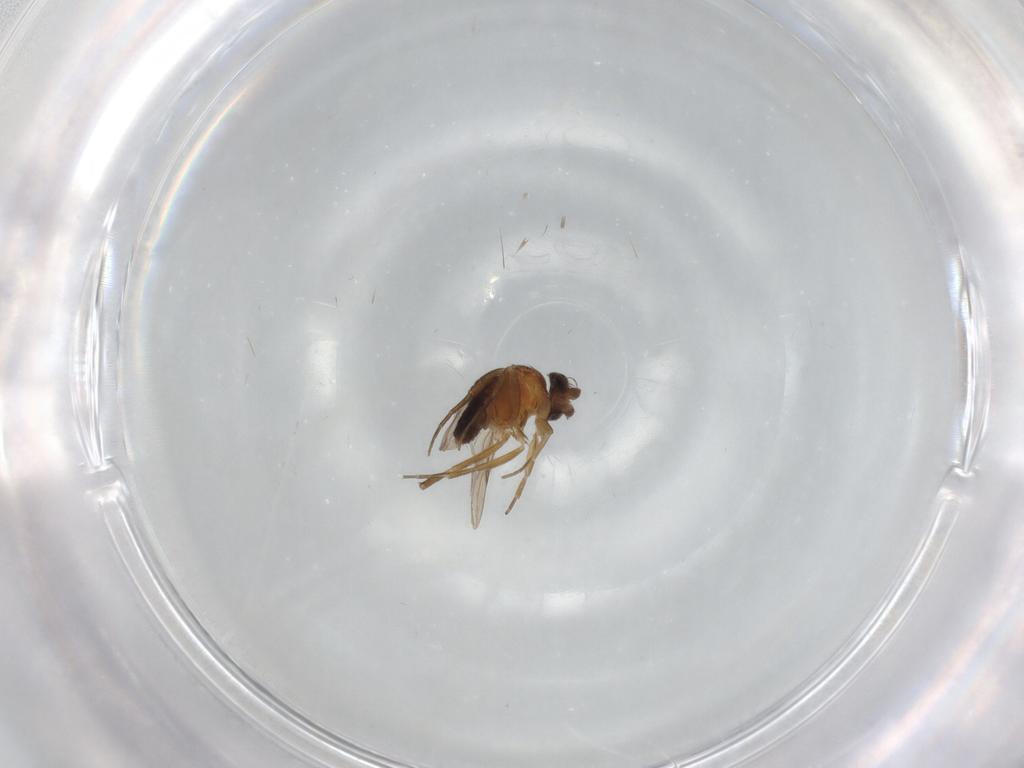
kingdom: Animalia
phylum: Arthropoda
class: Insecta
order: Diptera
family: Phoridae
